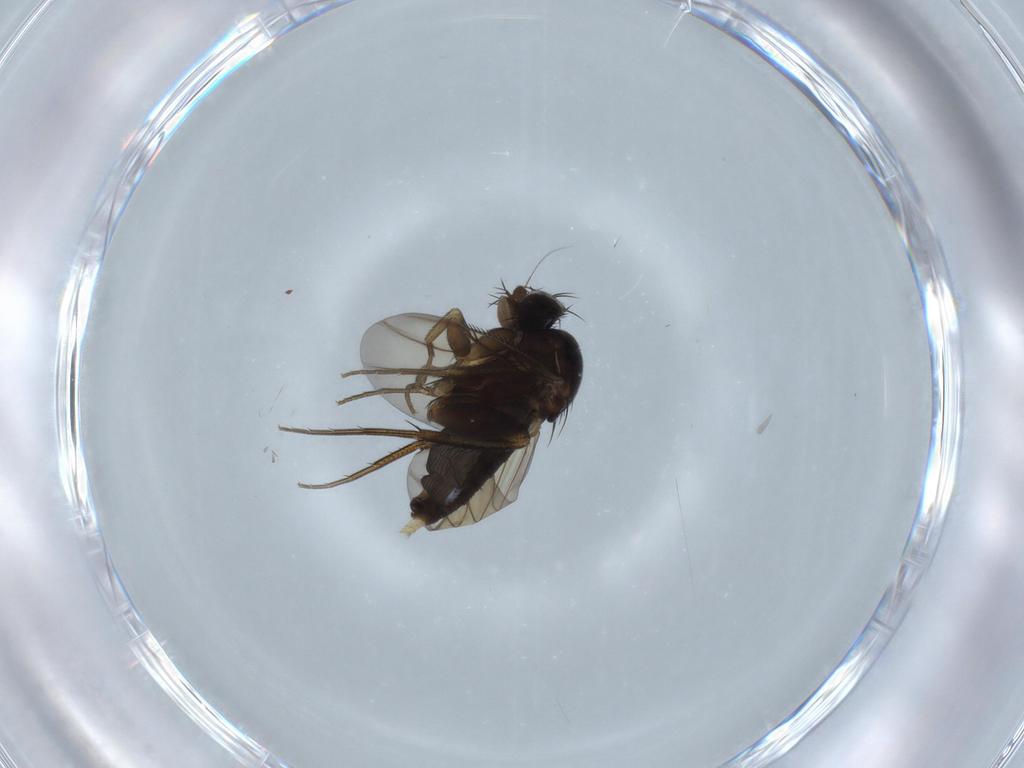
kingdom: Animalia
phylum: Arthropoda
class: Insecta
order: Diptera
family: Phoridae
